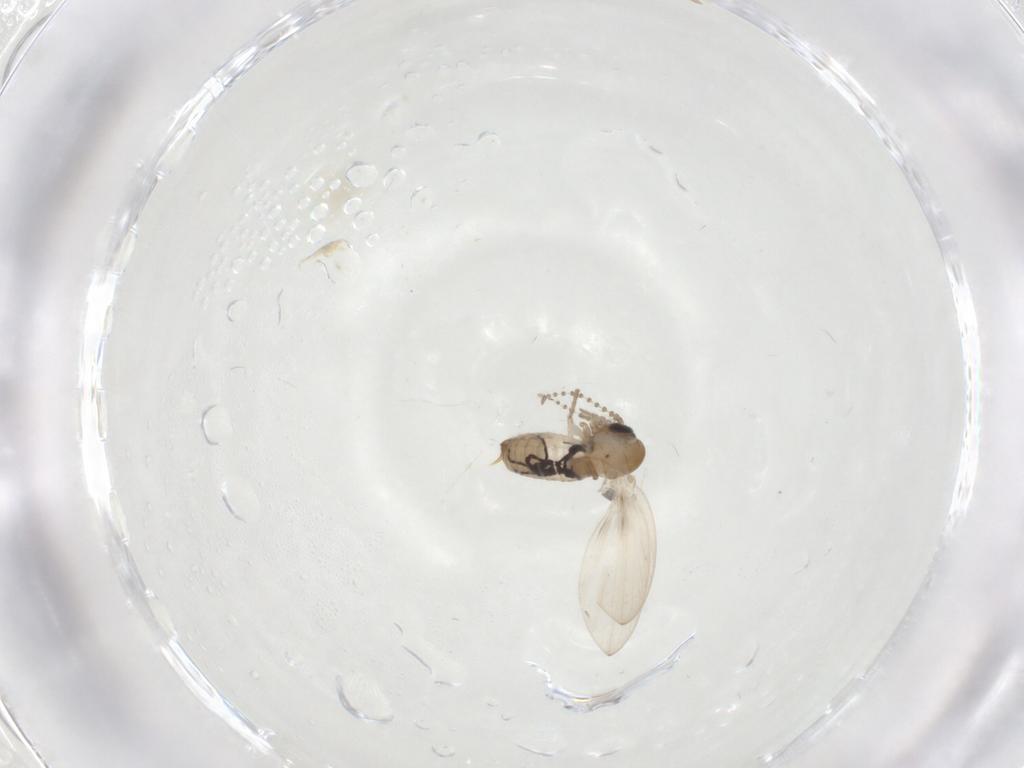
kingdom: Animalia
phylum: Arthropoda
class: Insecta
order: Diptera
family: Psychodidae
